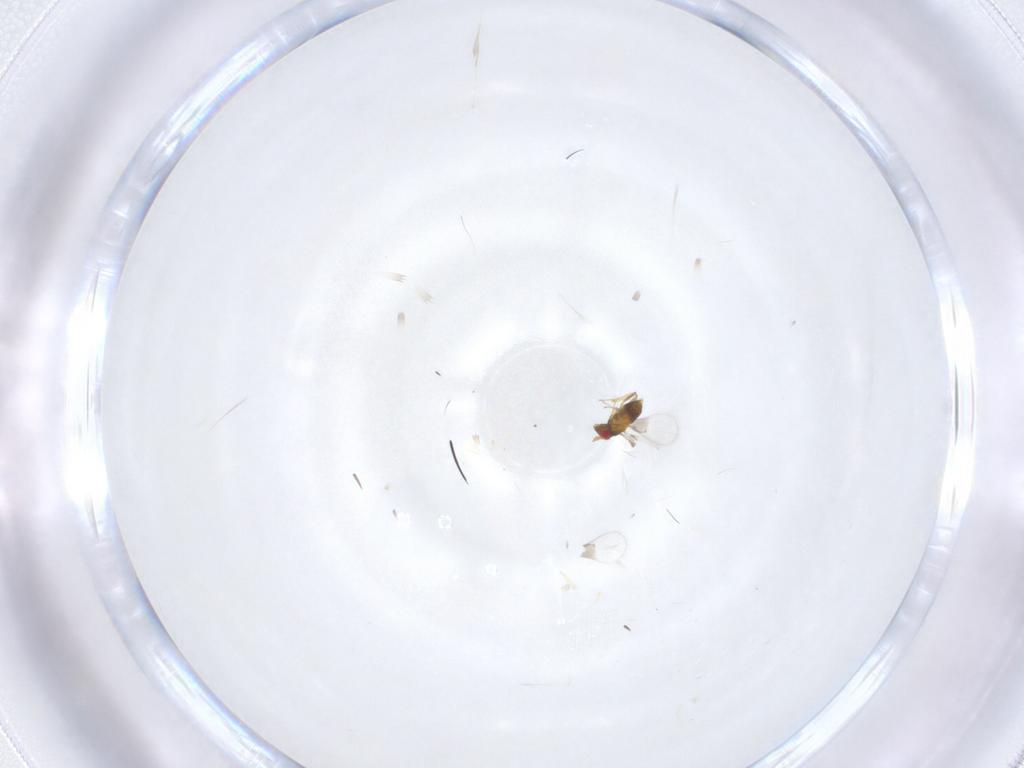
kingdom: Animalia
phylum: Arthropoda
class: Insecta
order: Hymenoptera
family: Trichogrammatidae
